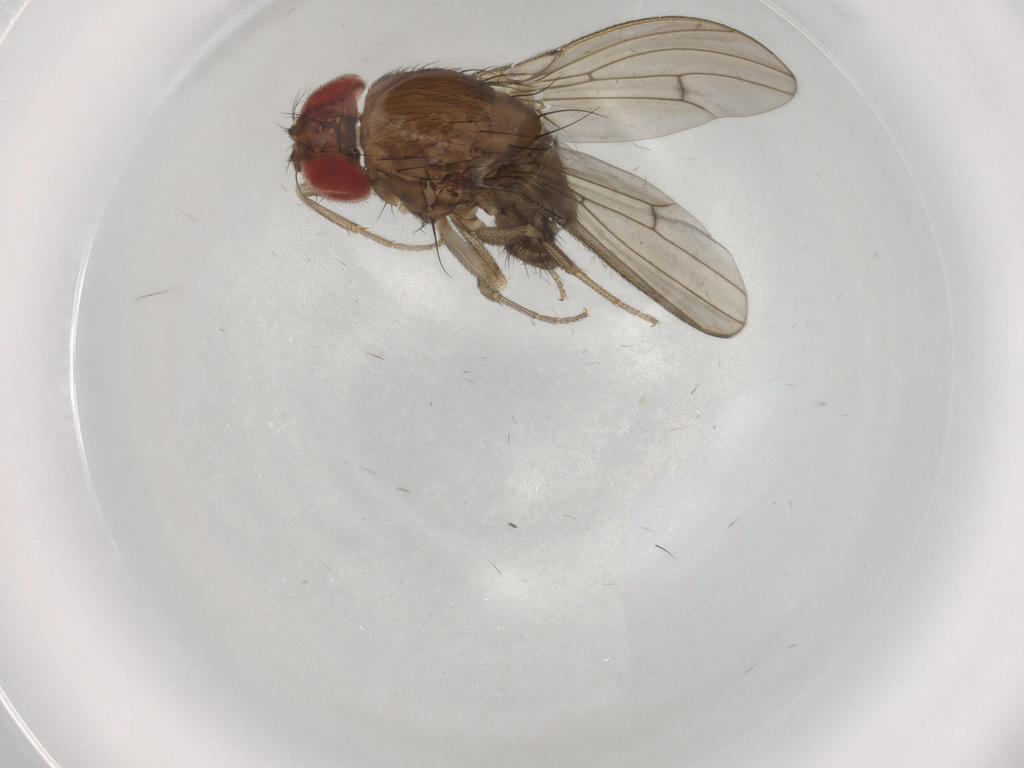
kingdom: Animalia
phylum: Arthropoda
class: Insecta
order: Diptera
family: Drosophilidae
